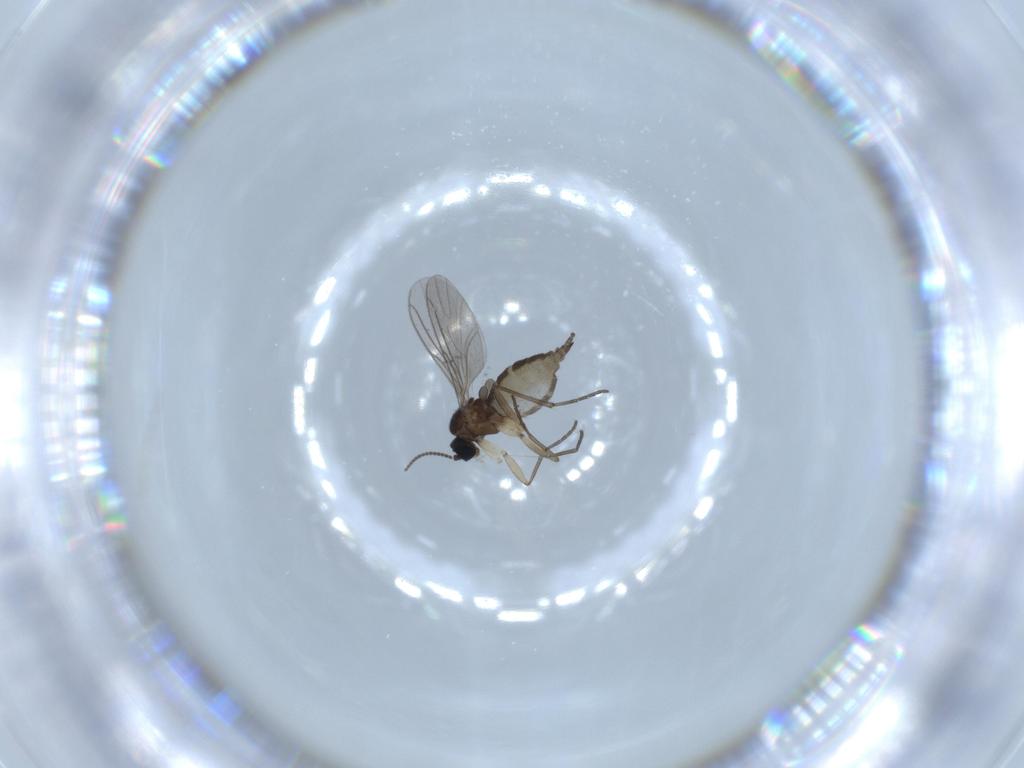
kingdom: Animalia
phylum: Arthropoda
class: Insecta
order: Diptera
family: Sciaridae
